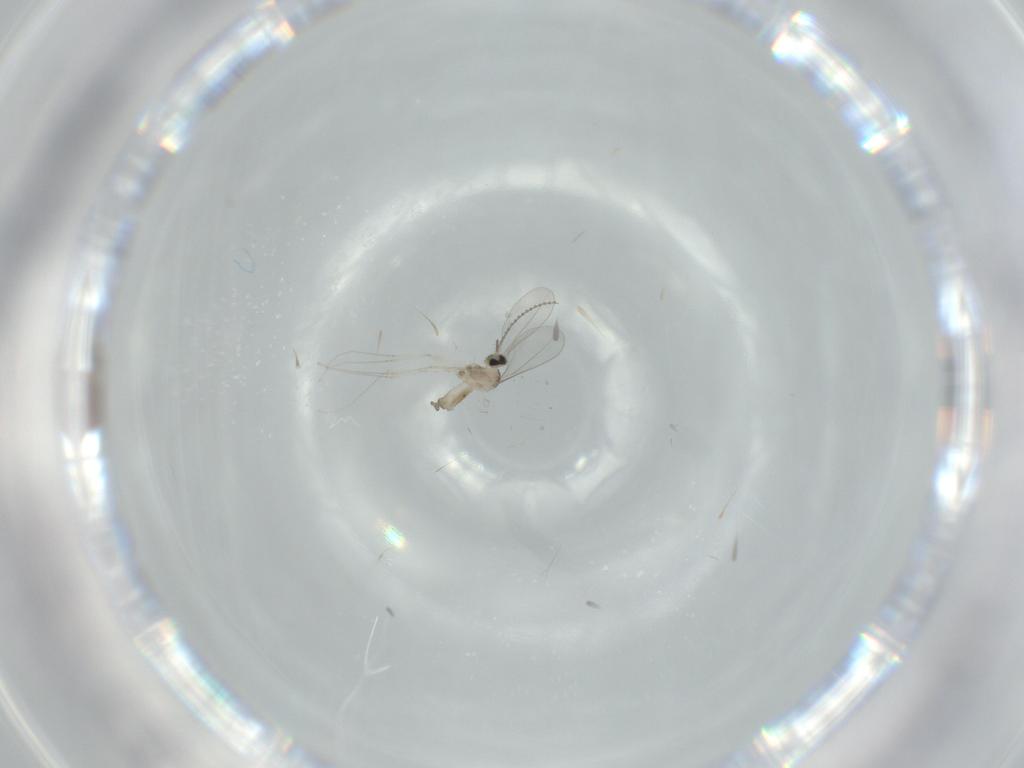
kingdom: Animalia
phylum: Arthropoda
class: Insecta
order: Diptera
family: Cecidomyiidae
